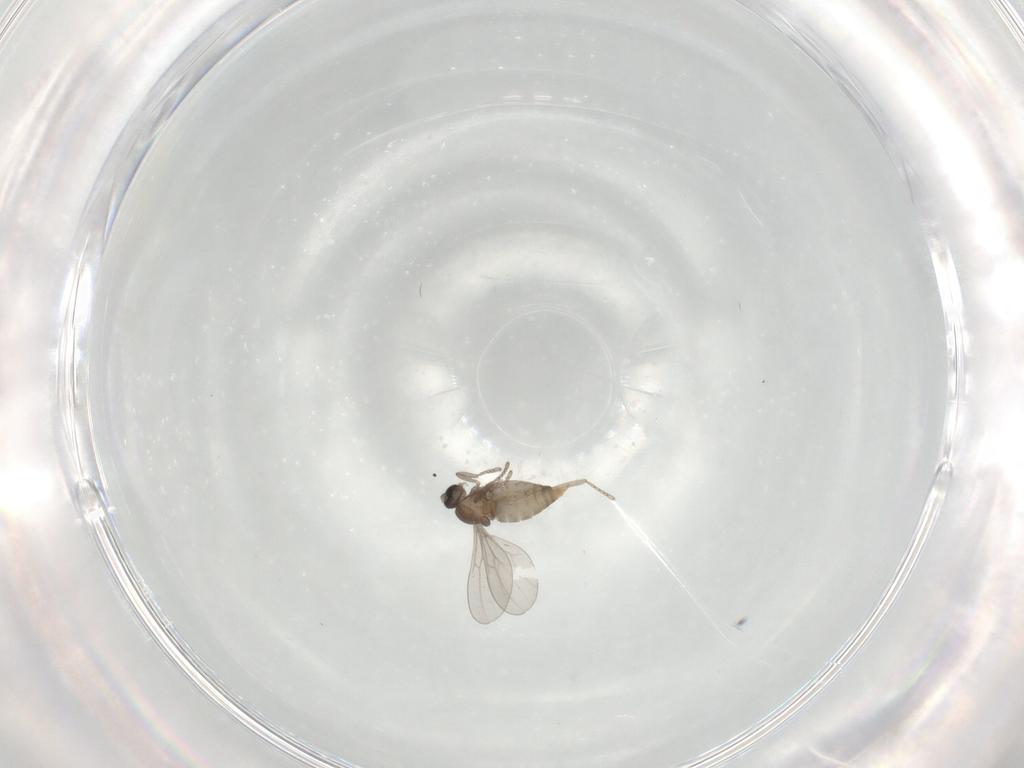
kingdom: Animalia
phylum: Arthropoda
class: Insecta
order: Diptera
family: Cecidomyiidae
